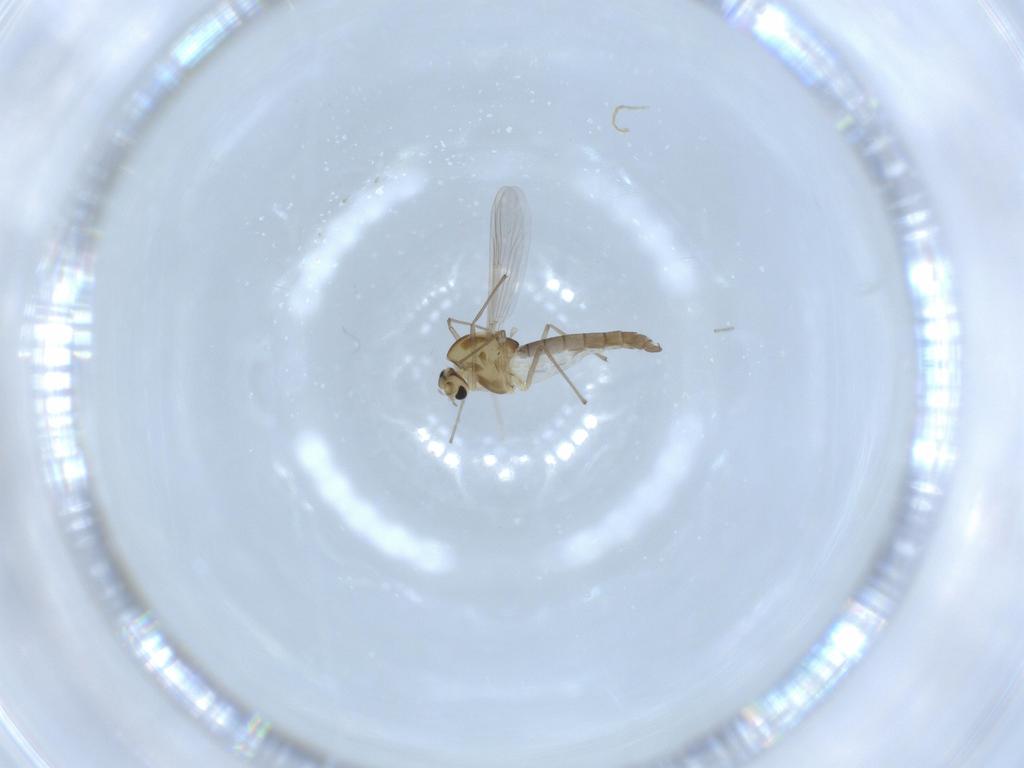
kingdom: Animalia
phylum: Arthropoda
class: Insecta
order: Diptera
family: Chironomidae
